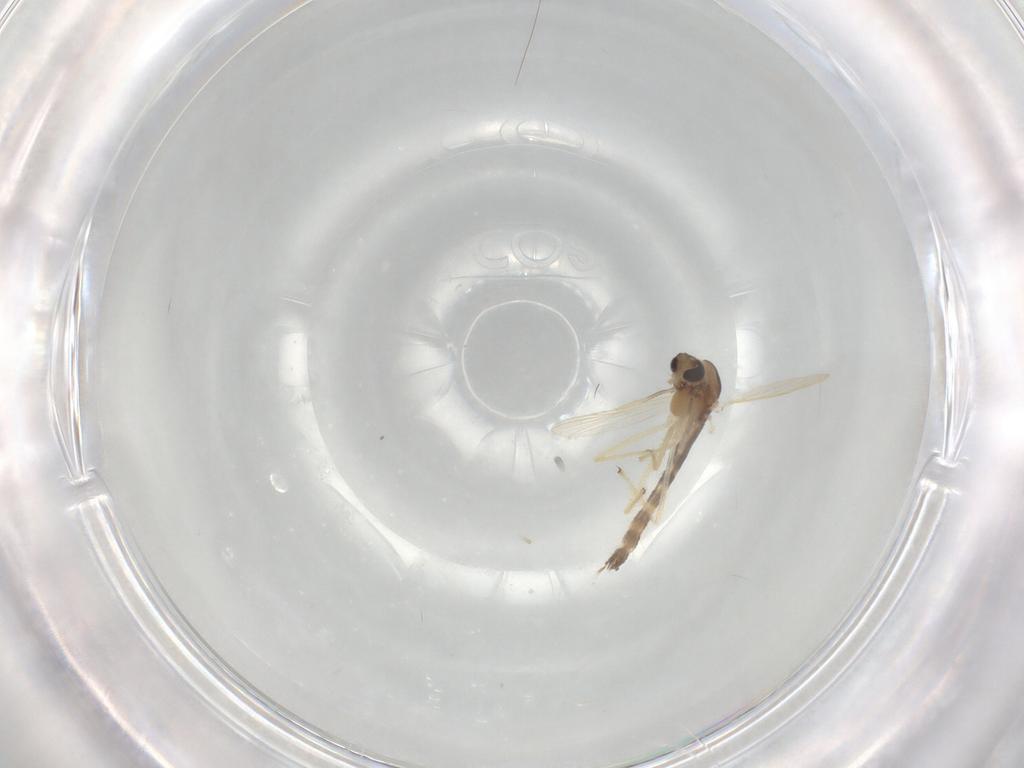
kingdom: Animalia
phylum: Arthropoda
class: Insecta
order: Diptera
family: Chironomidae
